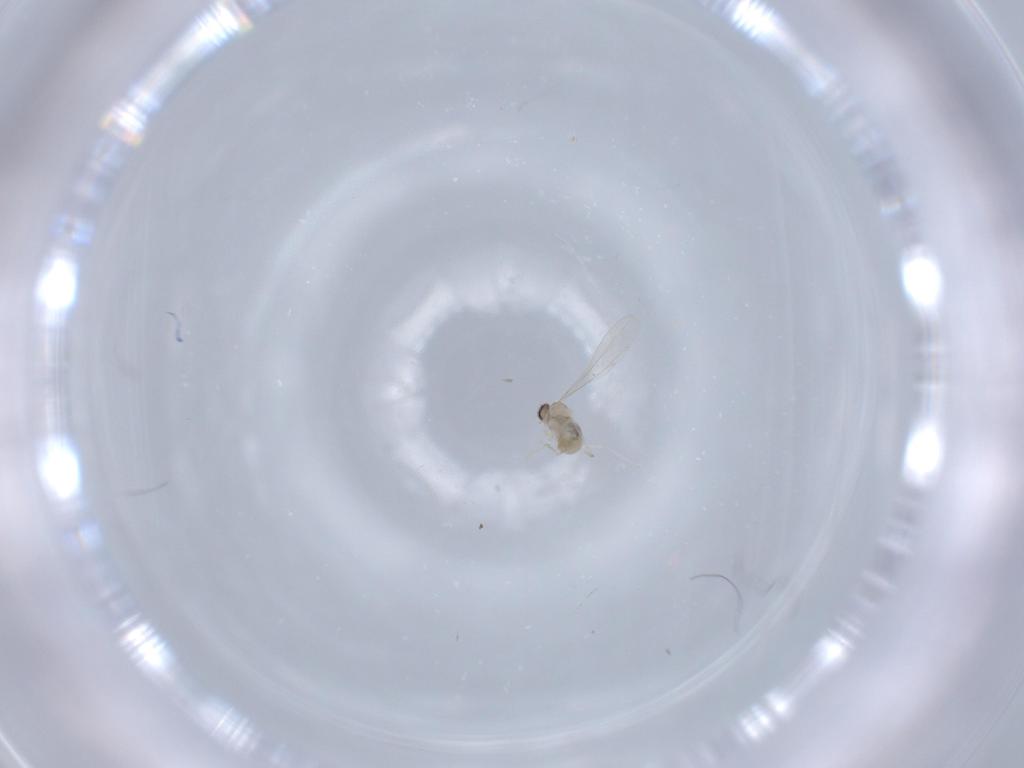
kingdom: Animalia
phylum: Arthropoda
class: Insecta
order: Diptera
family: Cecidomyiidae
